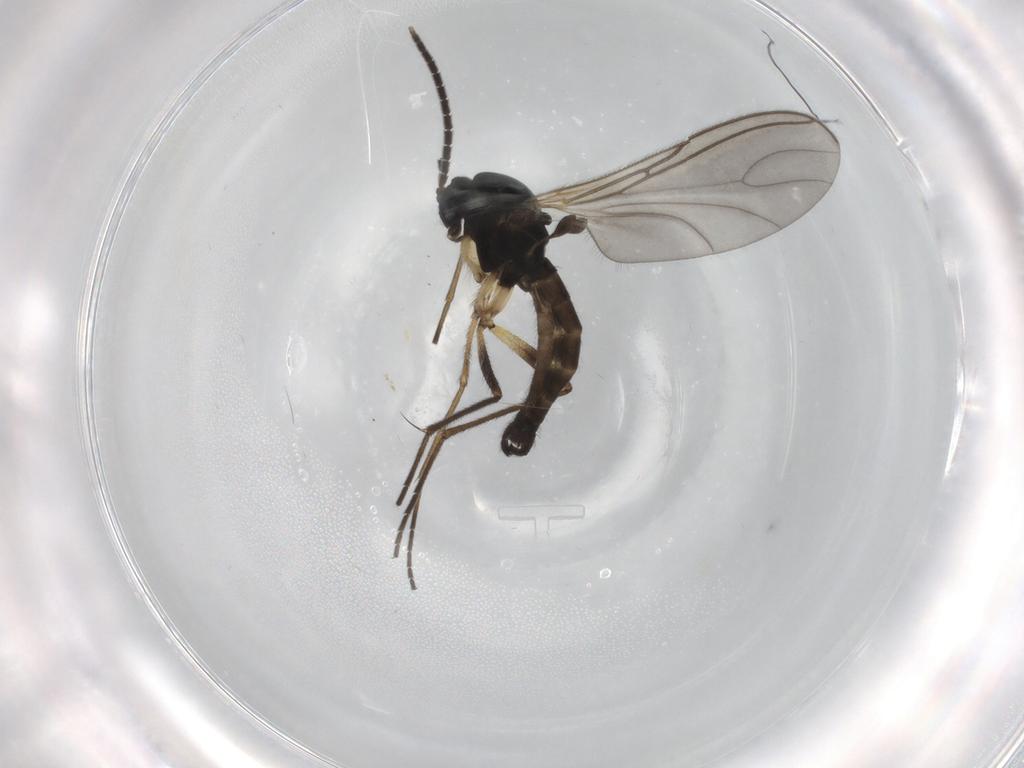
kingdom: Animalia
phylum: Arthropoda
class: Insecta
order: Diptera
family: Sciaridae
